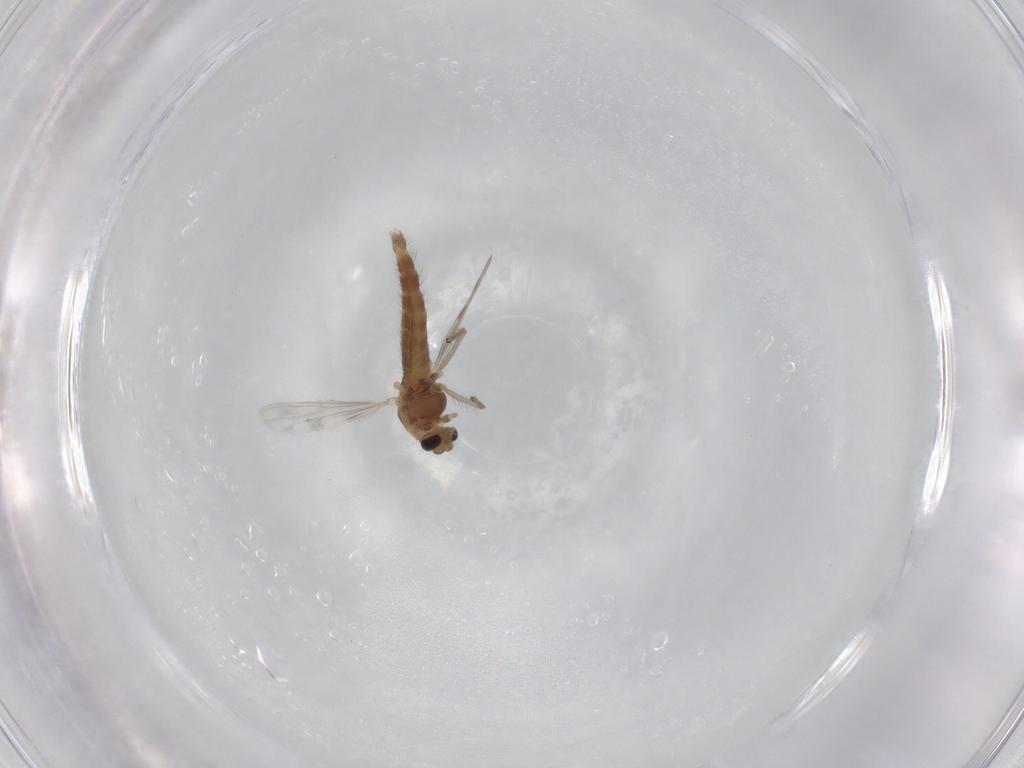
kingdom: Animalia
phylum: Arthropoda
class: Insecta
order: Diptera
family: Chironomidae
